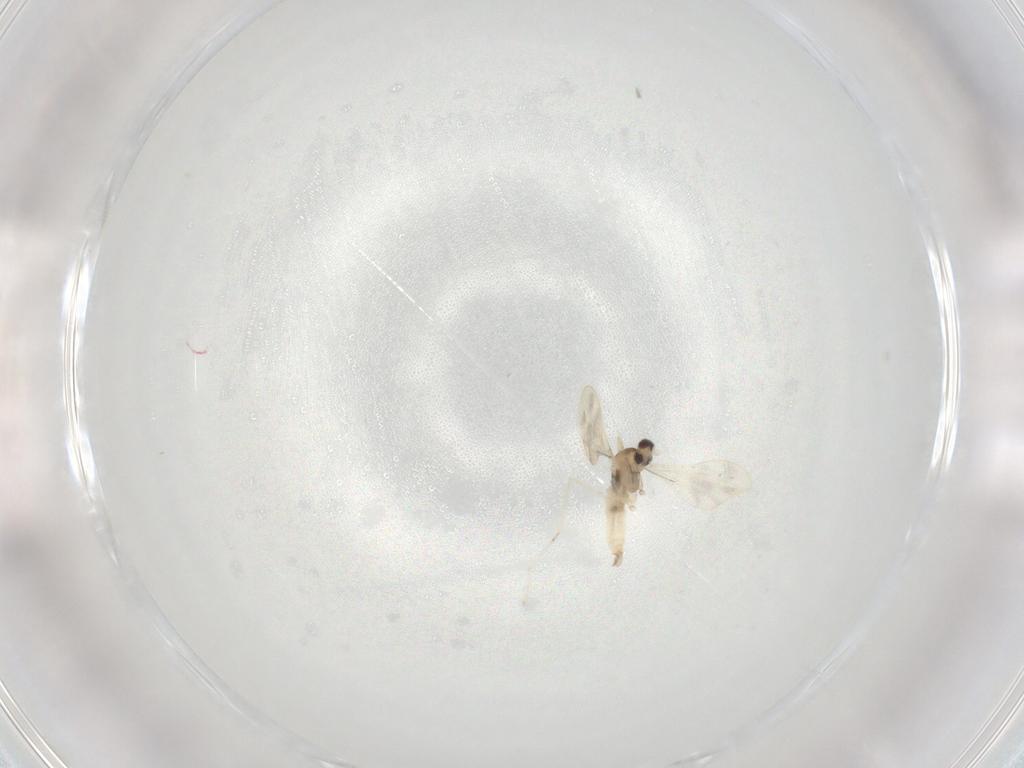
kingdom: Animalia
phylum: Arthropoda
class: Insecta
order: Diptera
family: Cecidomyiidae
